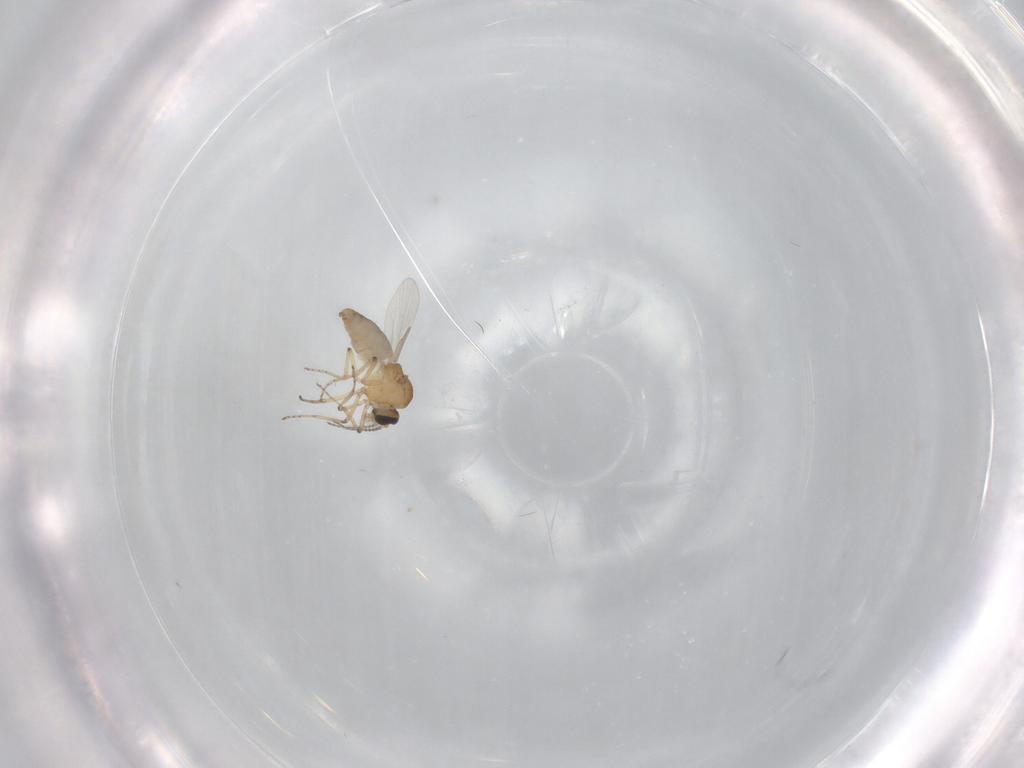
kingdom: Animalia
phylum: Arthropoda
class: Insecta
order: Diptera
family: Ceratopogonidae
